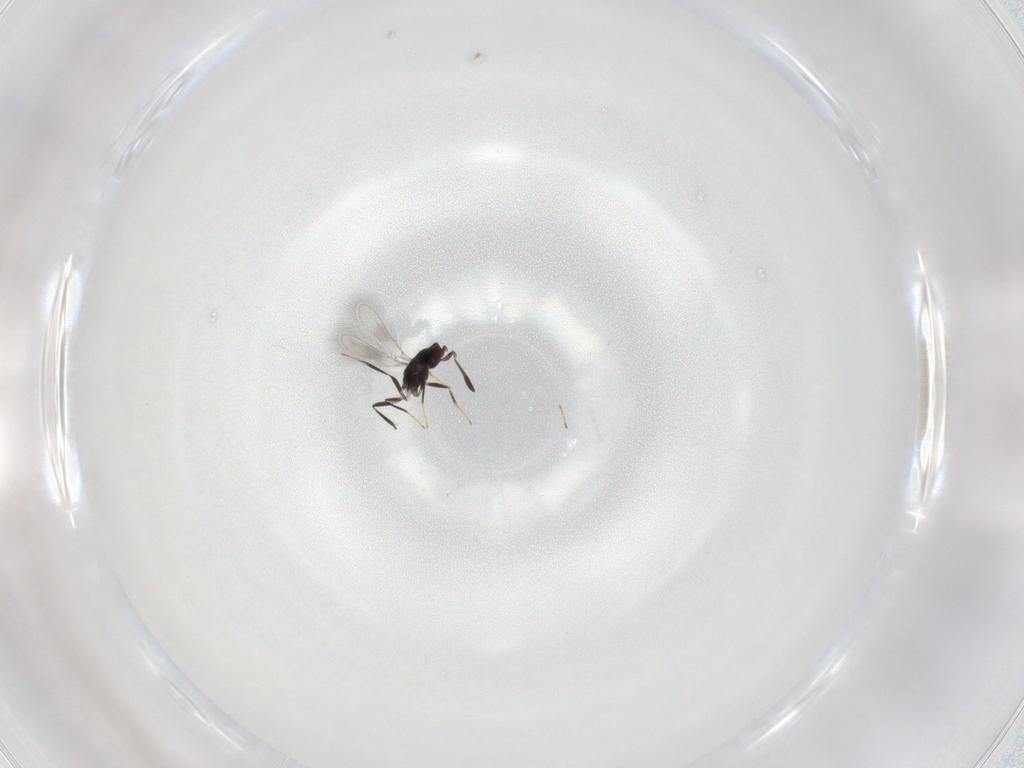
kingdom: Animalia
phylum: Arthropoda
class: Insecta
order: Hymenoptera
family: Mymaridae
